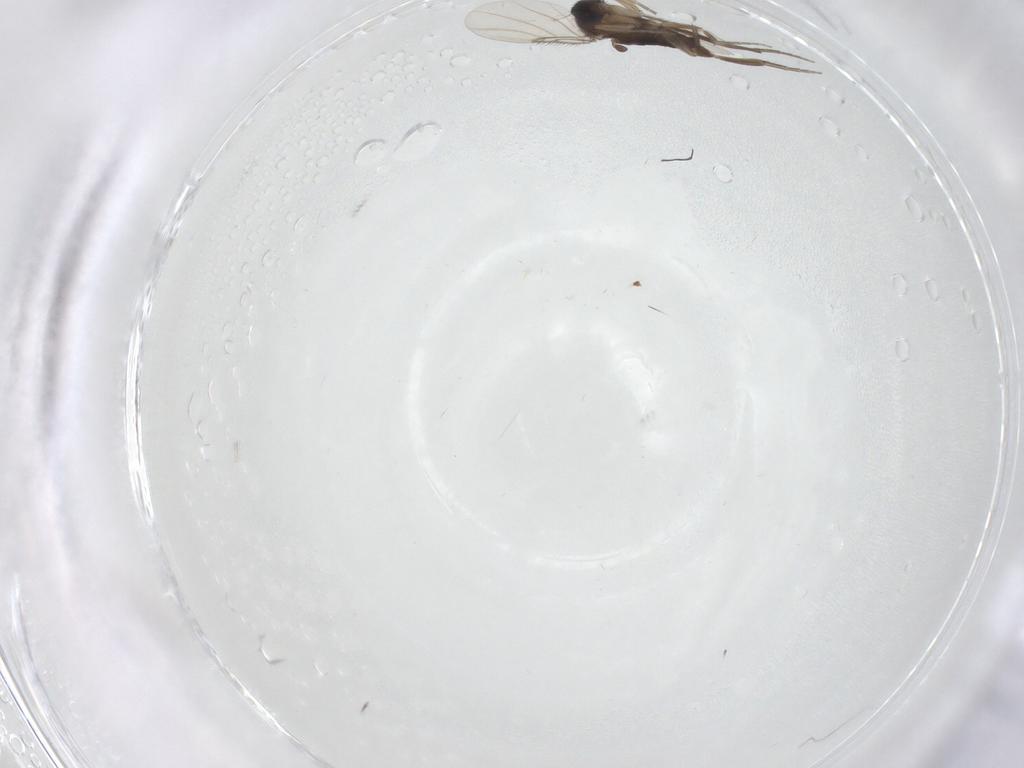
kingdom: Animalia
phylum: Arthropoda
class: Insecta
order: Diptera
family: Phoridae
